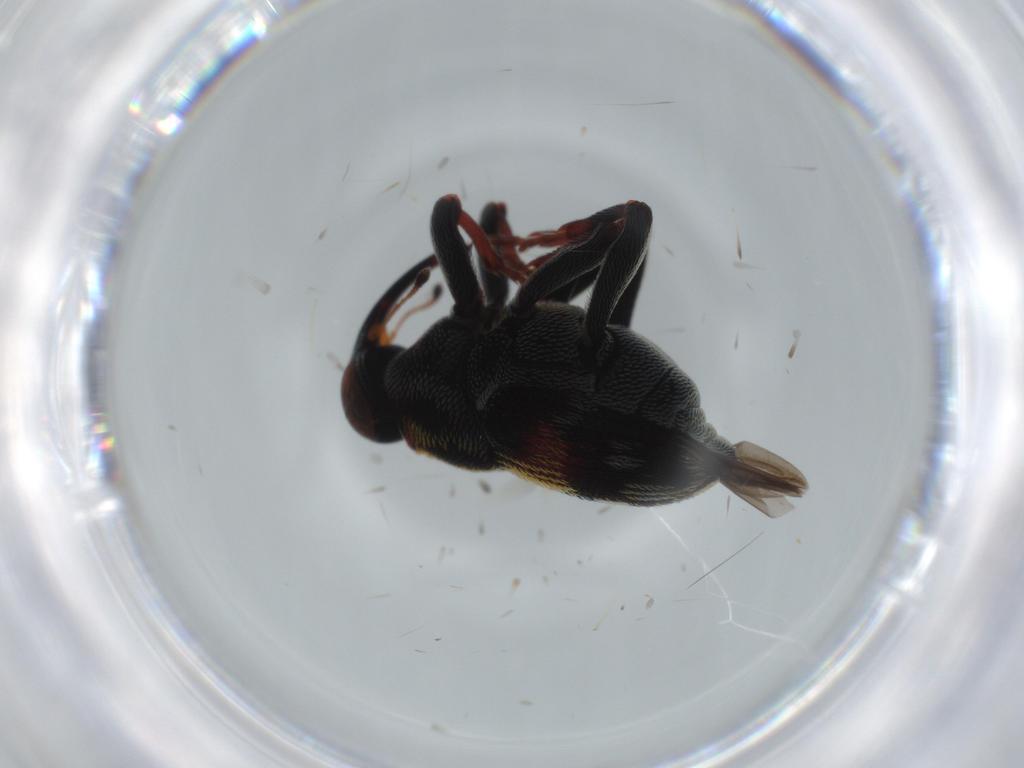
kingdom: Animalia
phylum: Arthropoda
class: Insecta
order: Coleoptera
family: Curculionidae
